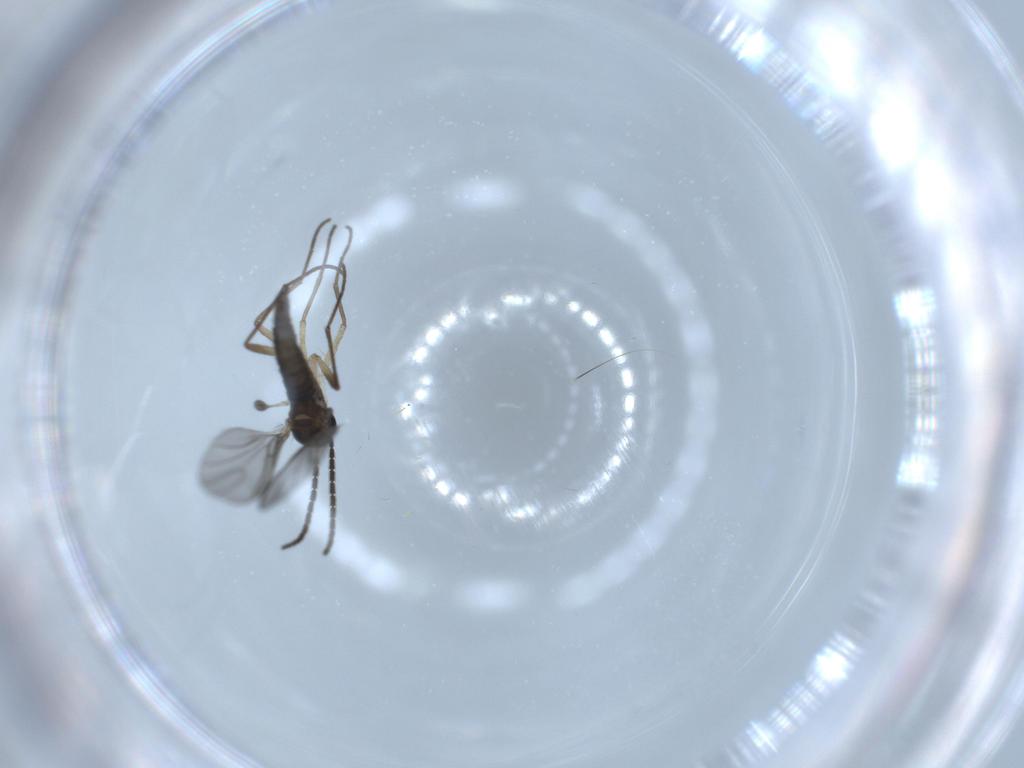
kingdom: Animalia
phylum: Arthropoda
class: Insecta
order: Diptera
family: Sciaridae
